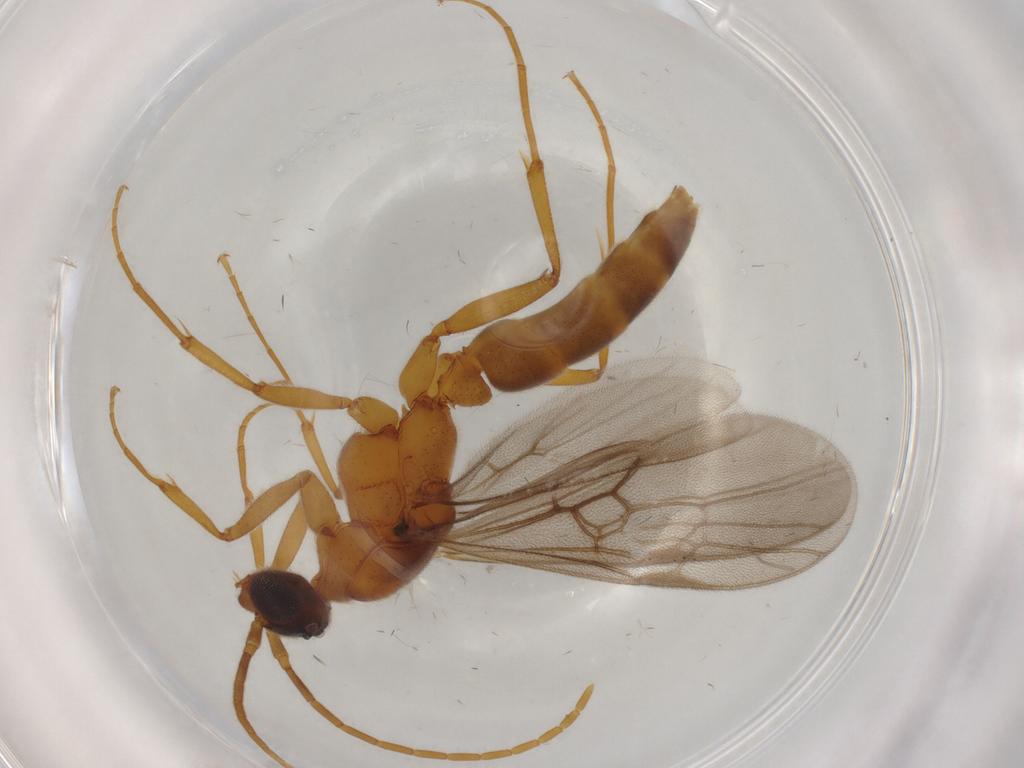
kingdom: Animalia
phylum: Arthropoda
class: Insecta
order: Hymenoptera
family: Formicidae
